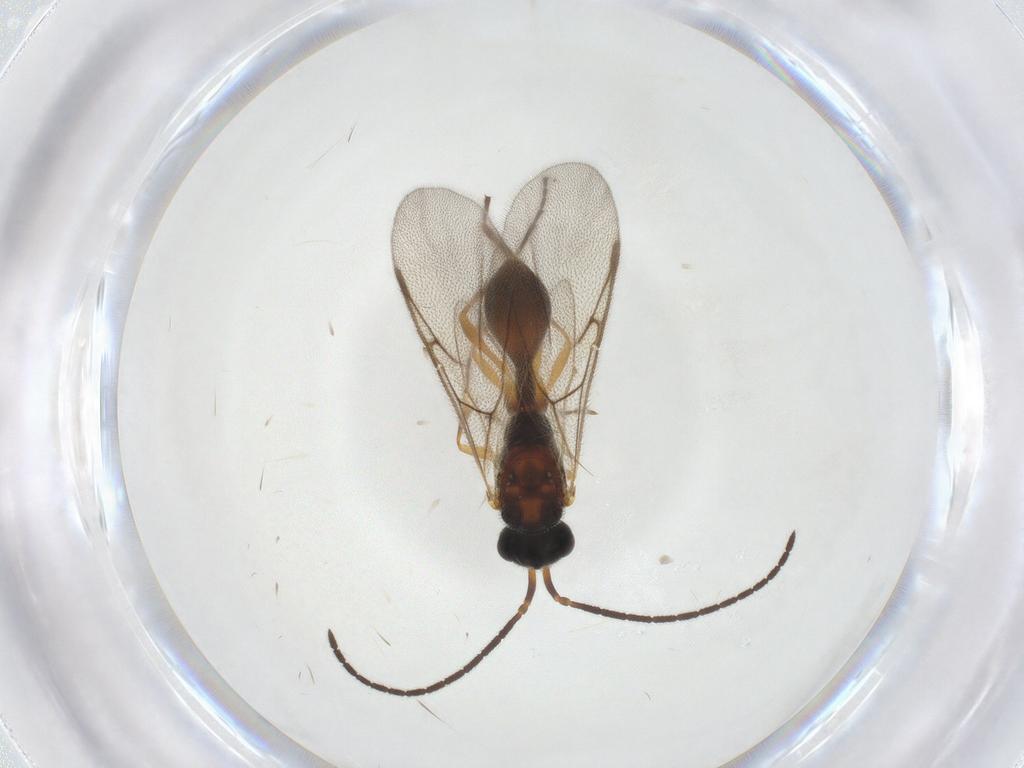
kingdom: Animalia
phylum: Arthropoda
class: Insecta
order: Hymenoptera
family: Diapriidae
